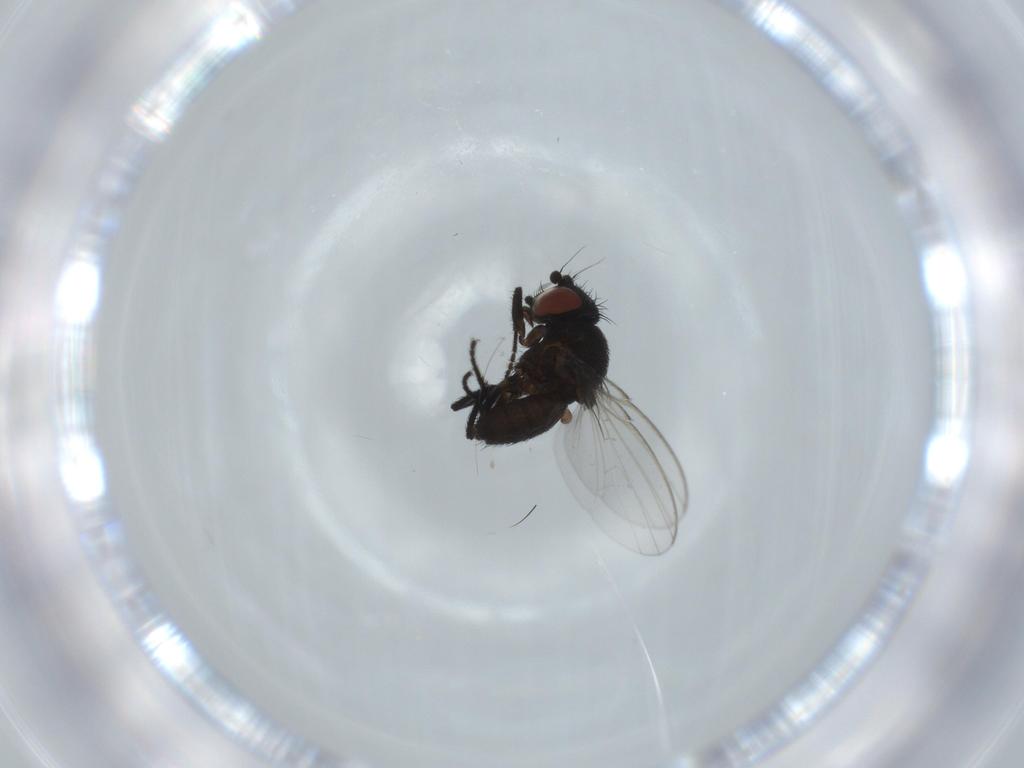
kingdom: Animalia
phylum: Arthropoda
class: Insecta
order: Diptera
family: Milichiidae
